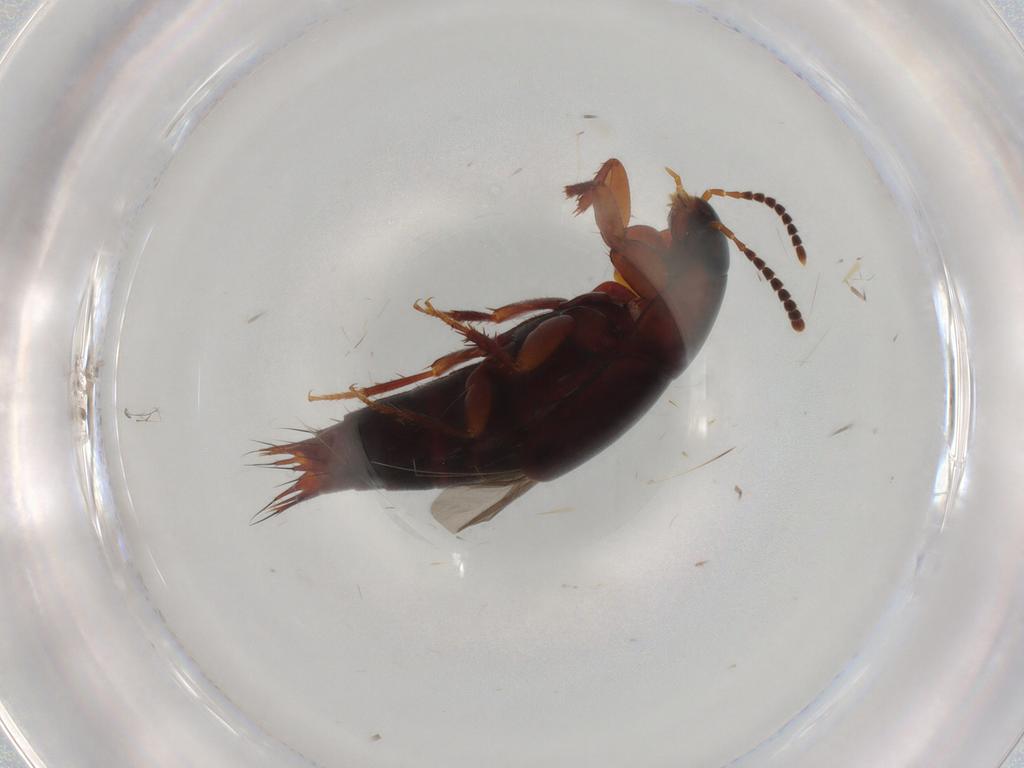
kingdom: Animalia
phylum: Arthropoda
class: Insecta
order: Coleoptera
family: Staphylinidae
